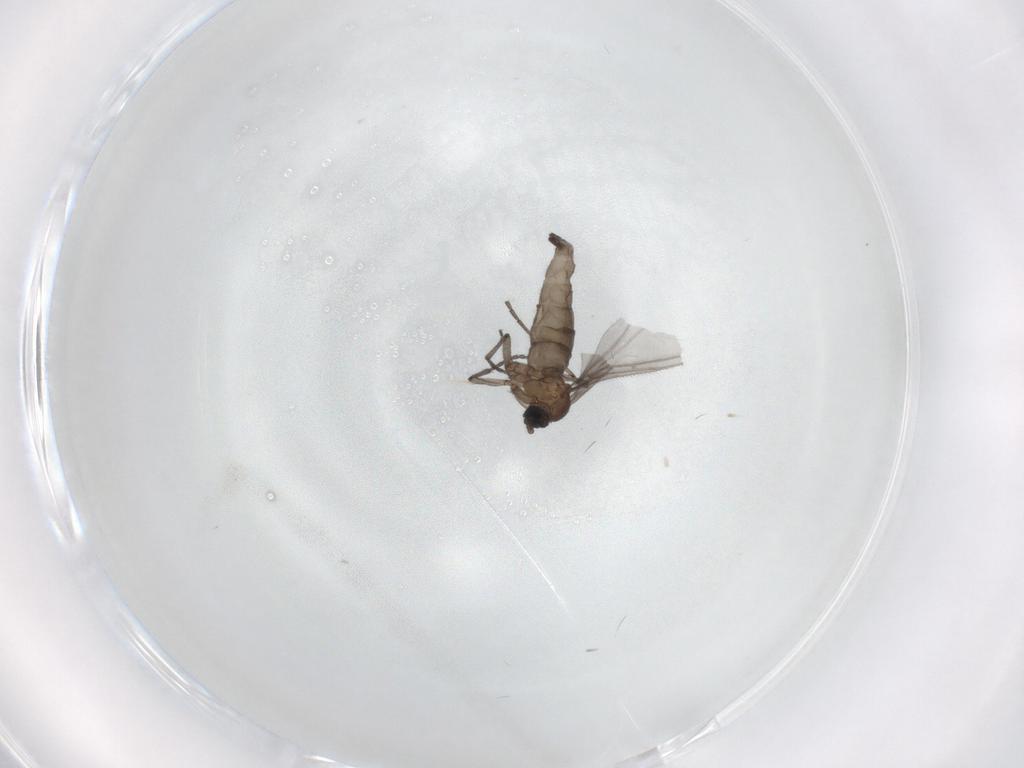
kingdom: Animalia
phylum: Arthropoda
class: Insecta
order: Diptera
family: Sciaridae
